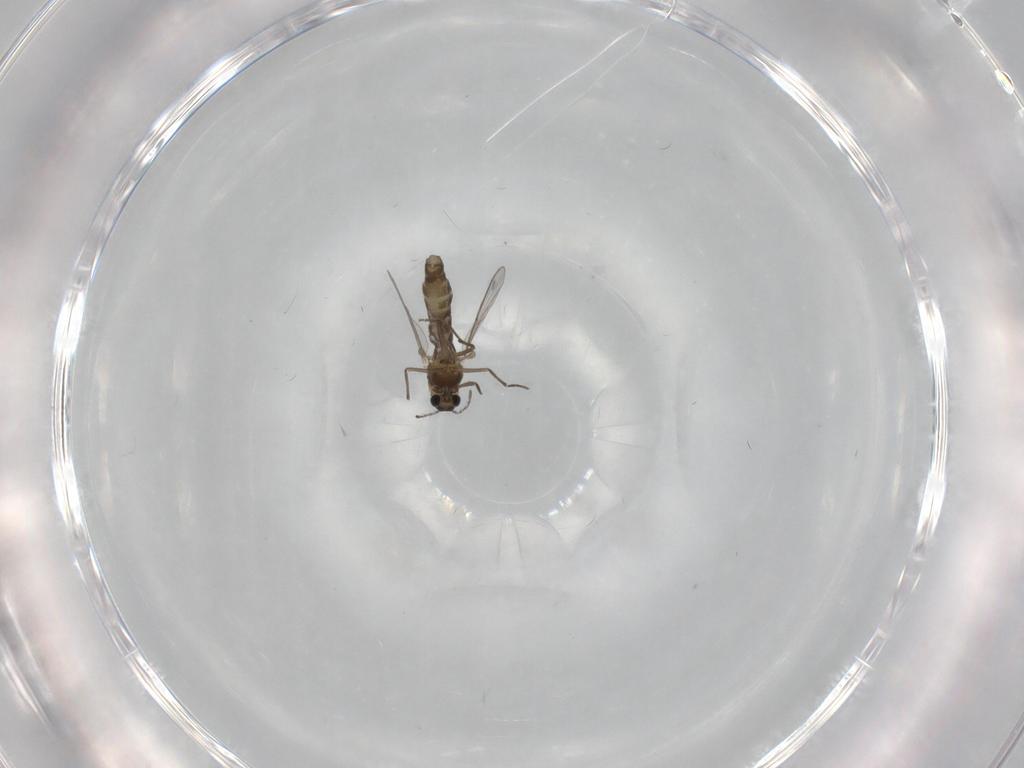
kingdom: Animalia
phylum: Arthropoda
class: Insecta
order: Diptera
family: Chironomidae
